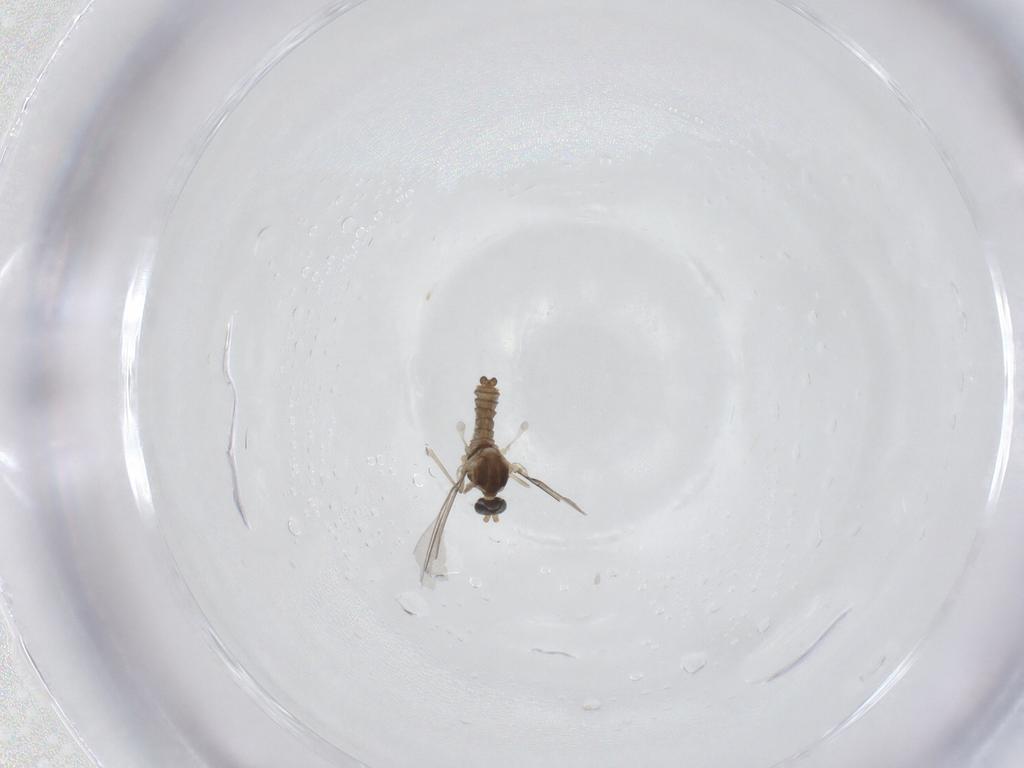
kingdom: Animalia
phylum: Arthropoda
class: Insecta
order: Diptera
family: Cecidomyiidae
